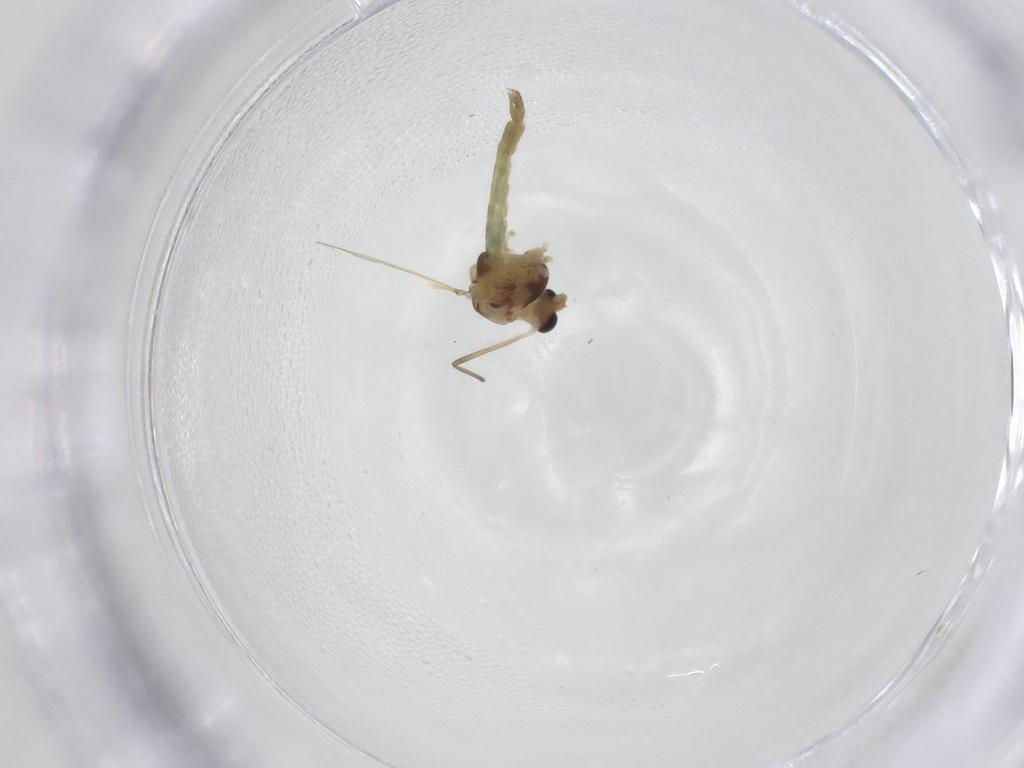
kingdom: Animalia
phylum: Arthropoda
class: Insecta
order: Diptera
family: Chironomidae
